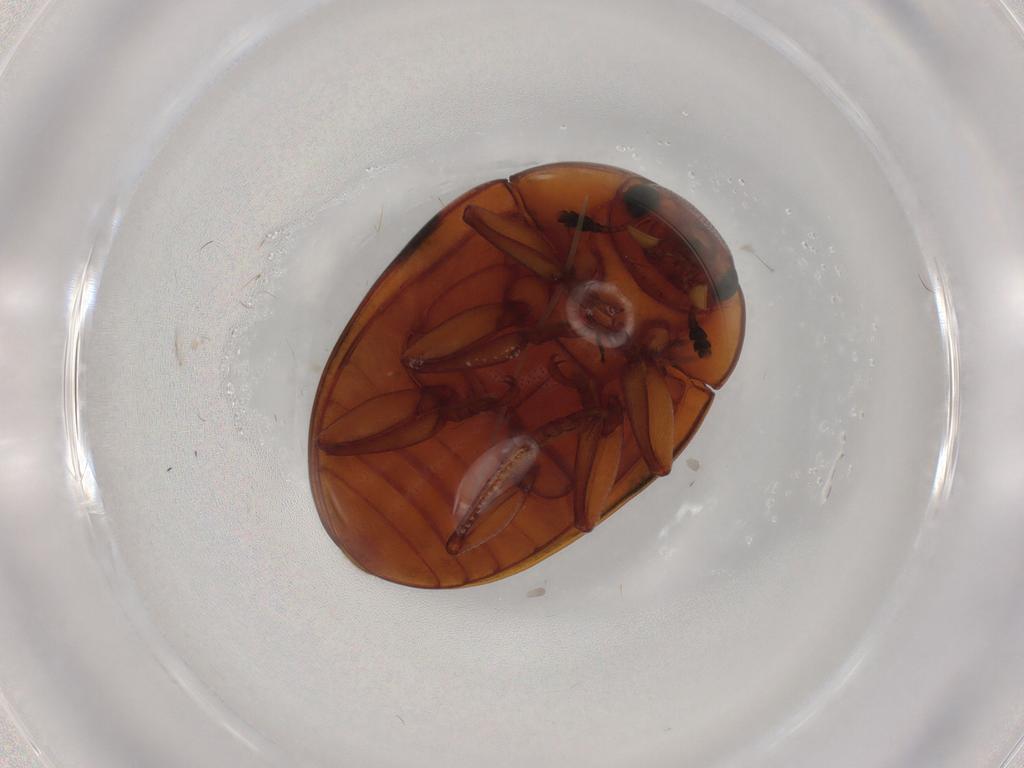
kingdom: Animalia
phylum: Arthropoda
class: Insecta
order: Coleoptera
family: Erotylidae
